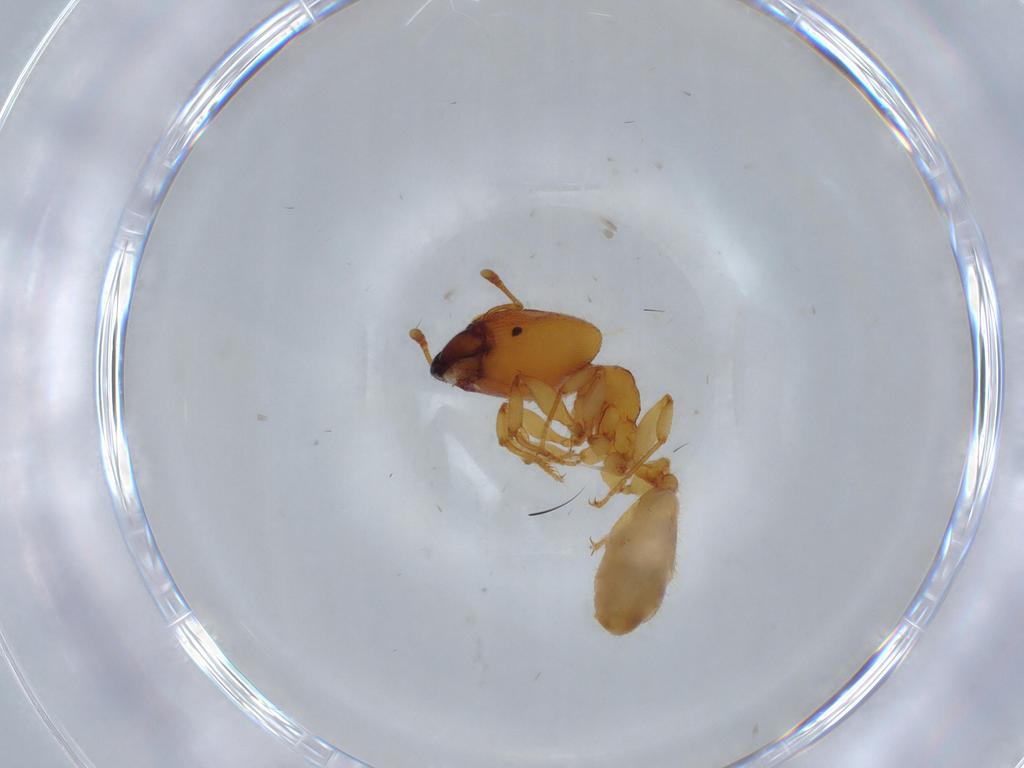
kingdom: Animalia
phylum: Arthropoda
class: Insecta
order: Hymenoptera
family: Formicidae
